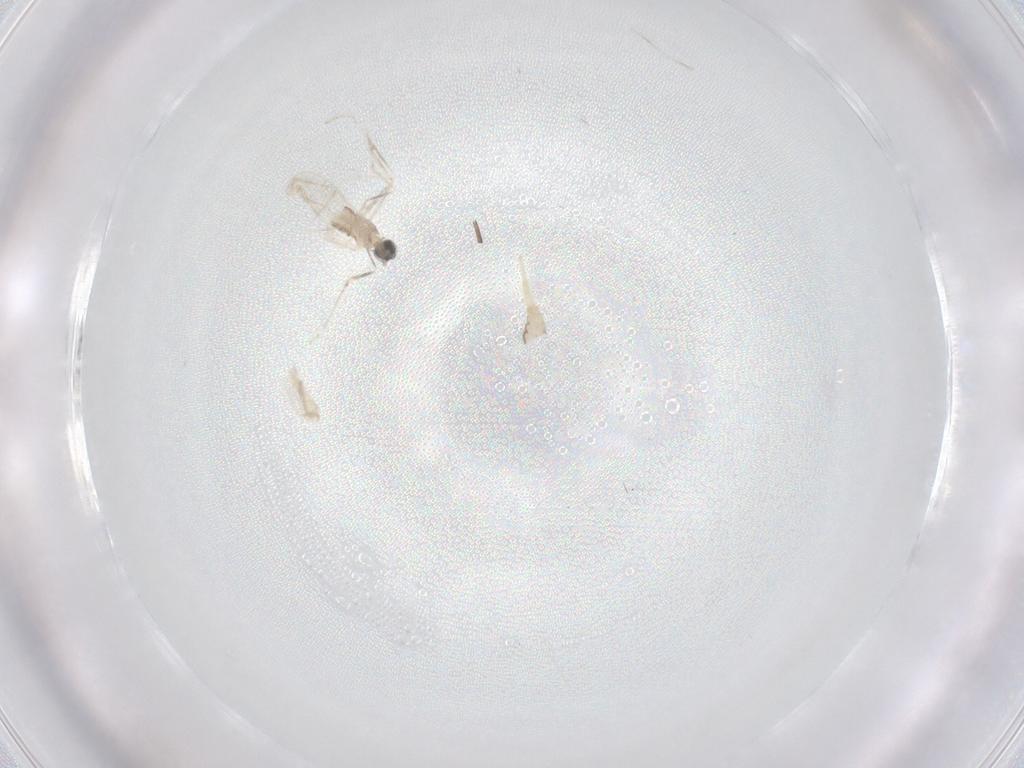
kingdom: Animalia
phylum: Arthropoda
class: Insecta
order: Diptera
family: Cecidomyiidae
